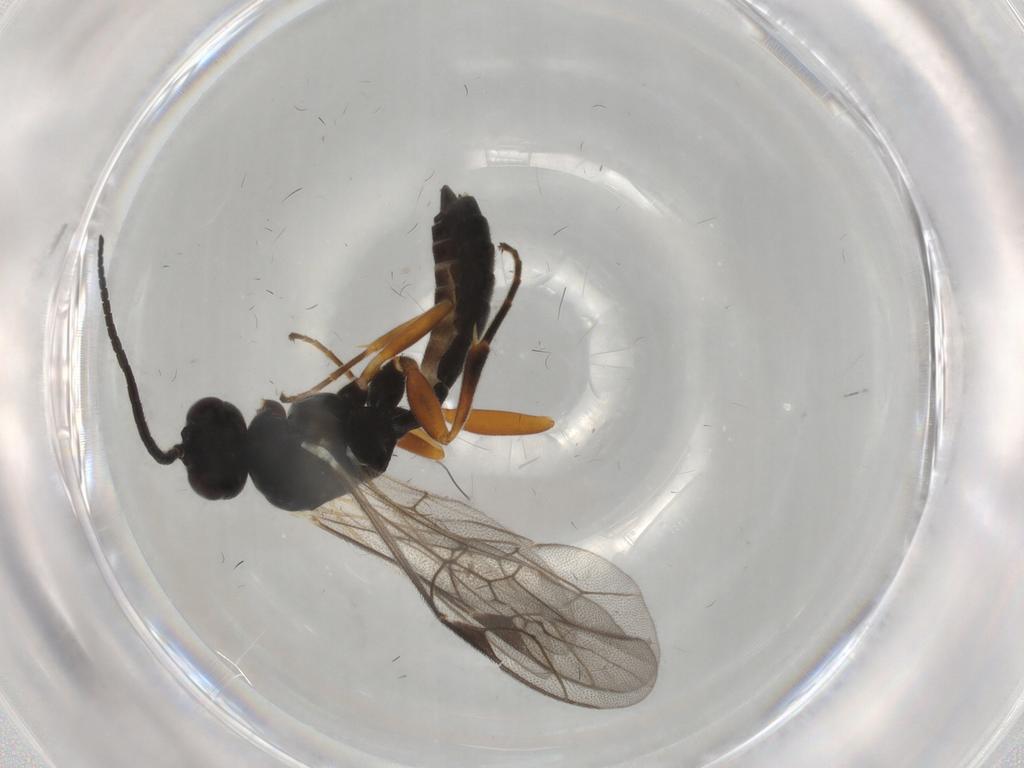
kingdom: Animalia
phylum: Arthropoda
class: Insecta
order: Hymenoptera
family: Ichneumonidae
